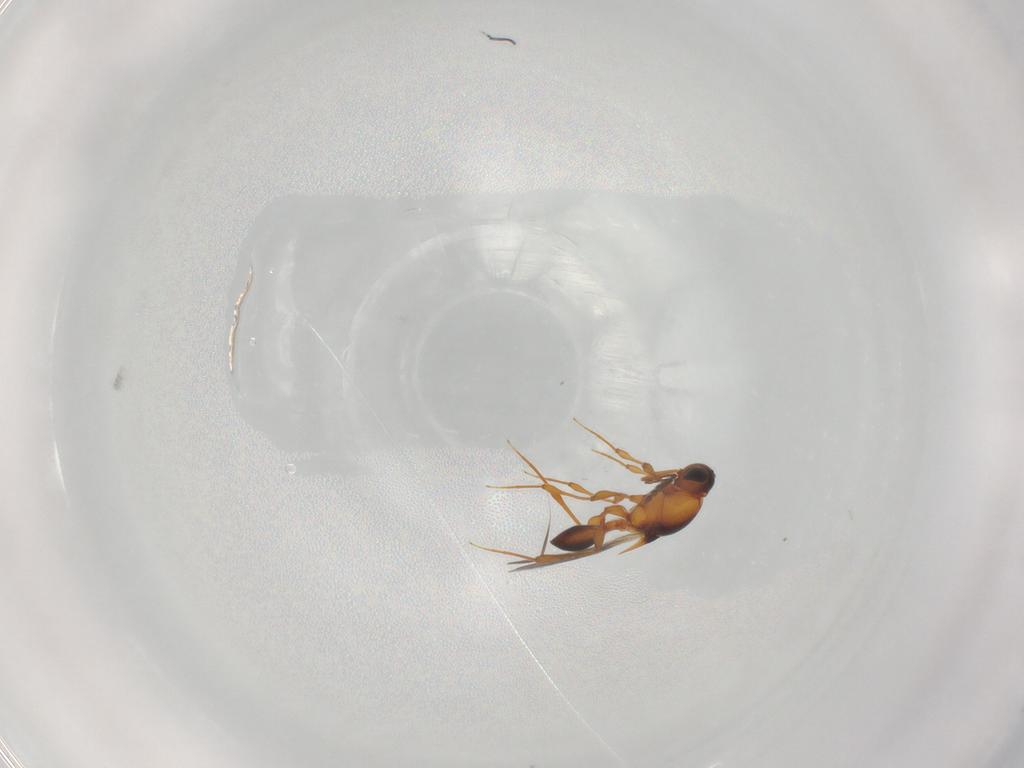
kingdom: Animalia
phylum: Arthropoda
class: Insecta
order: Hymenoptera
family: Platygastridae
